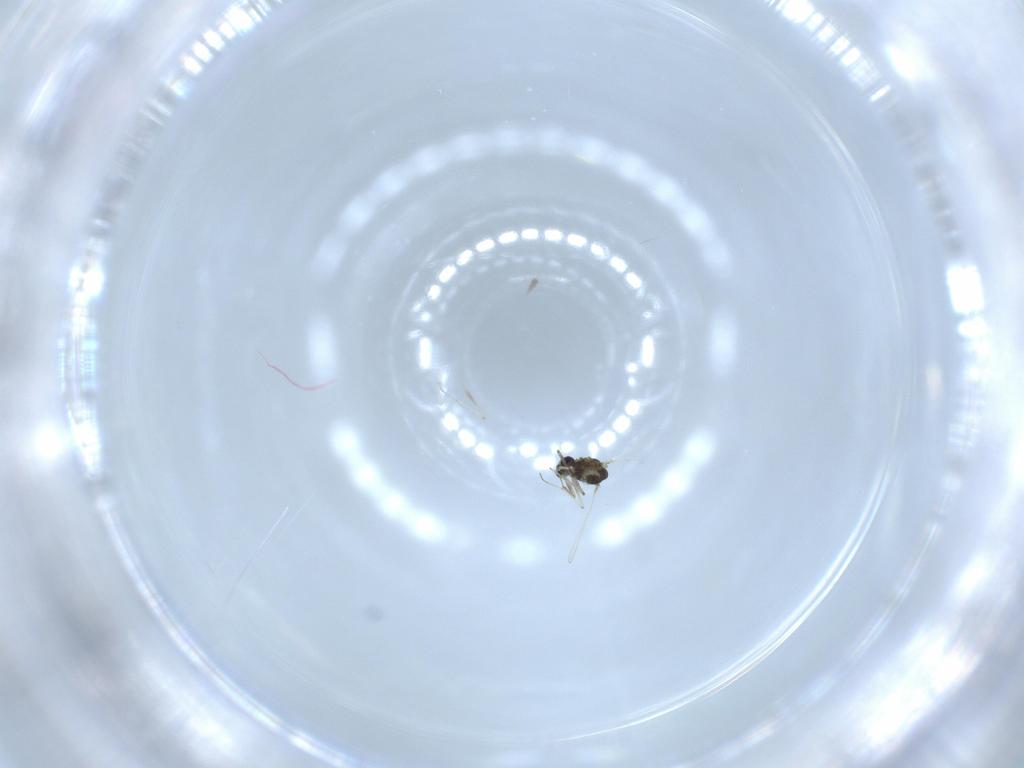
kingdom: Animalia
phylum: Arthropoda
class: Insecta
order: Diptera
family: Chironomidae
